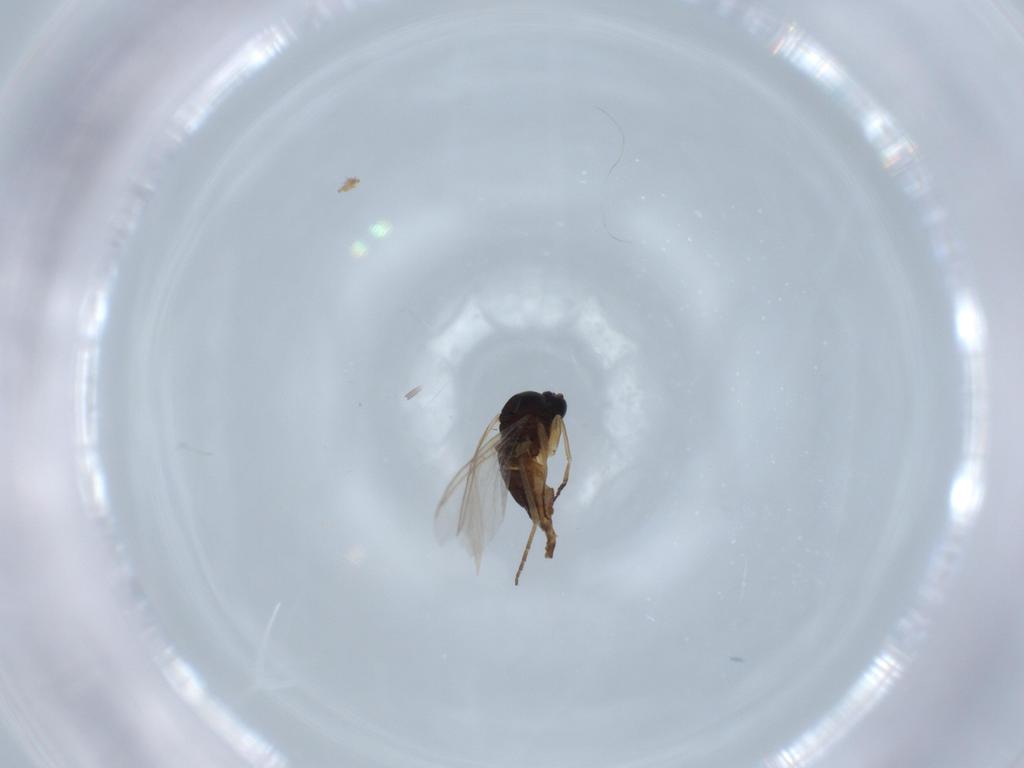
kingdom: Animalia
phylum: Arthropoda
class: Insecta
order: Diptera
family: Sciaridae
